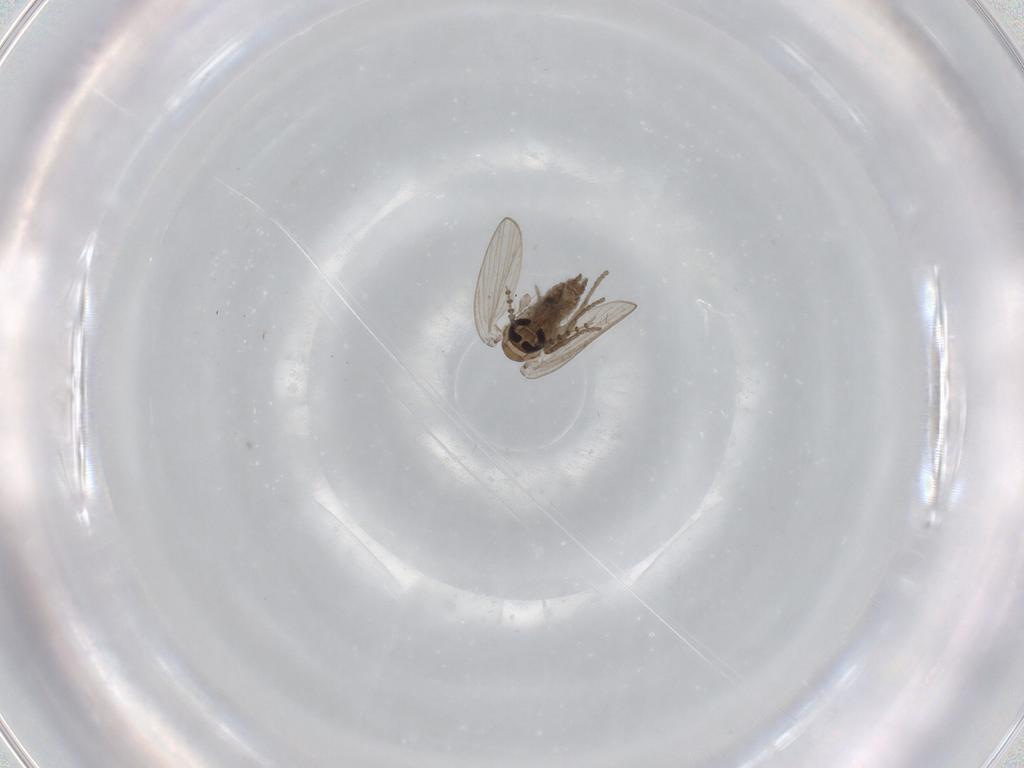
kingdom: Animalia
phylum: Arthropoda
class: Insecta
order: Diptera
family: Psychodidae
